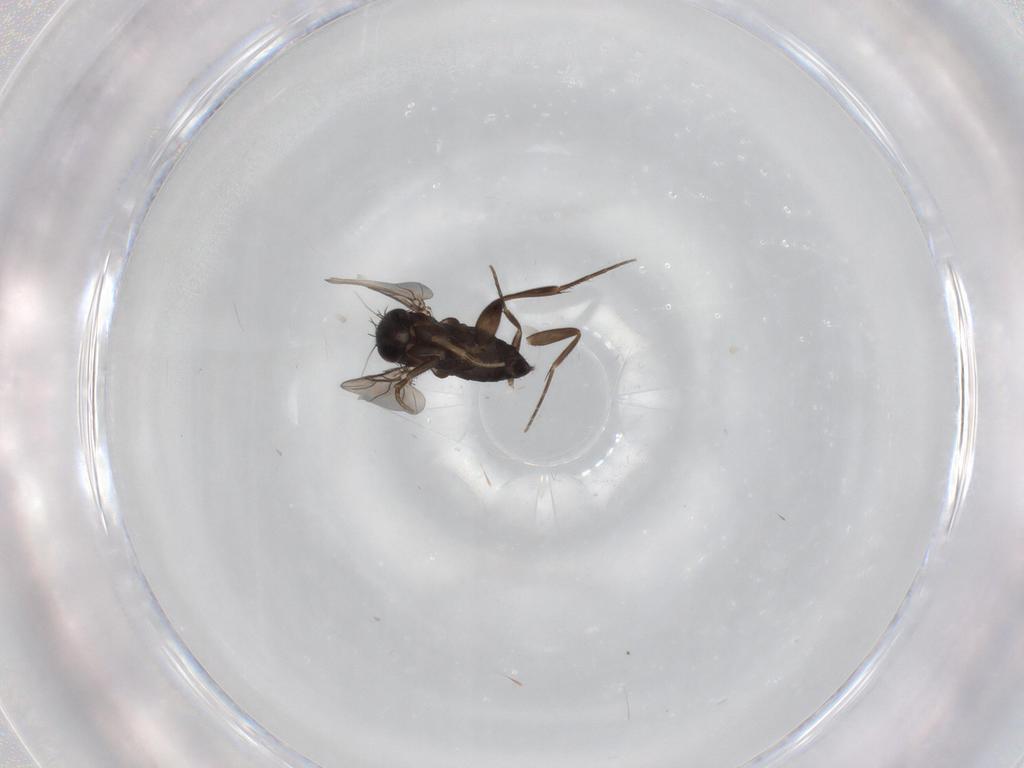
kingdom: Animalia
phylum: Arthropoda
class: Insecta
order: Diptera
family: Phoridae
